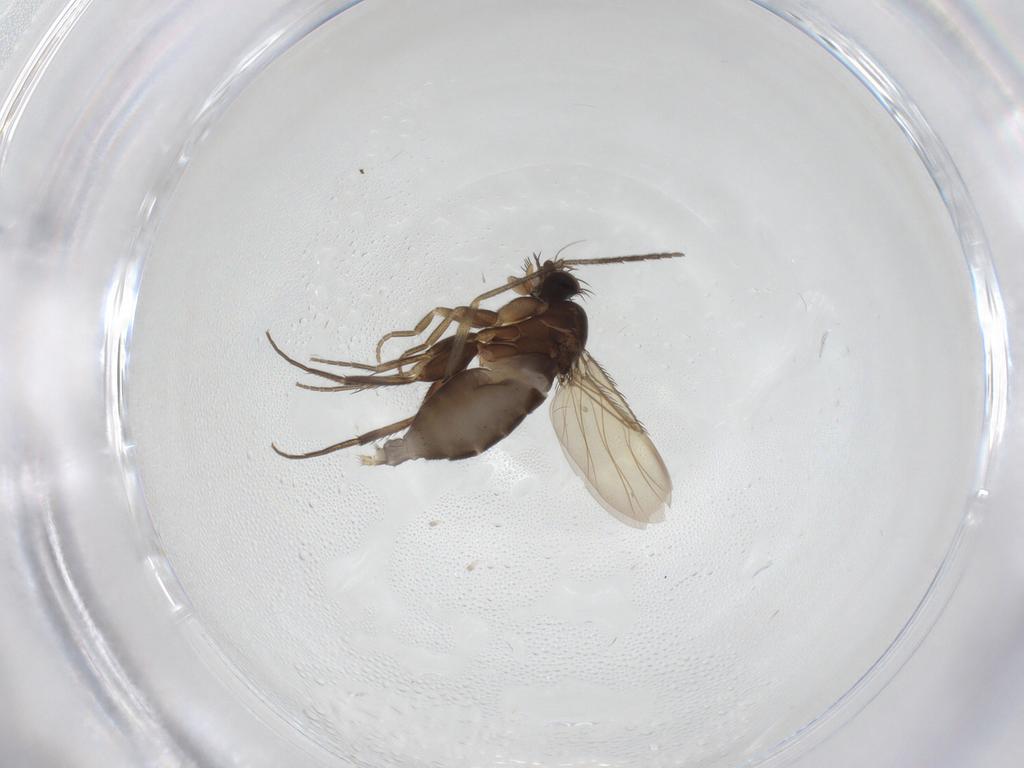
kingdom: Animalia
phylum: Arthropoda
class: Insecta
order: Diptera
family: Phoridae
